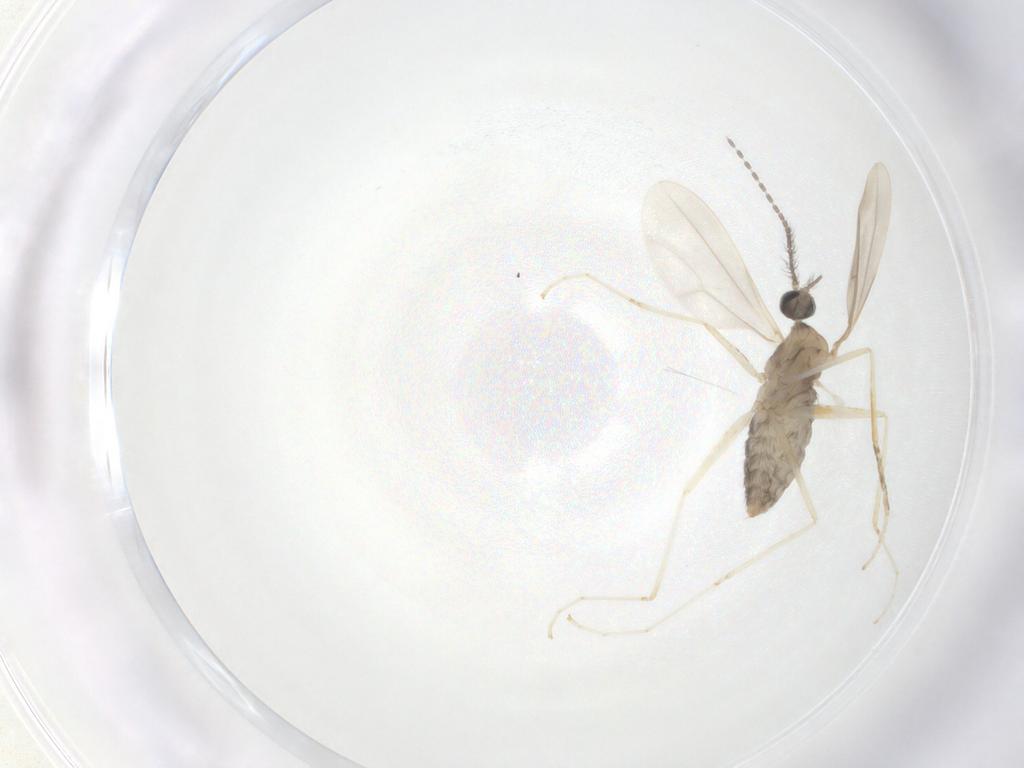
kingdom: Animalia
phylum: Arthropoda
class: Insecta
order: Diptera
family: Cecidomyiidae
